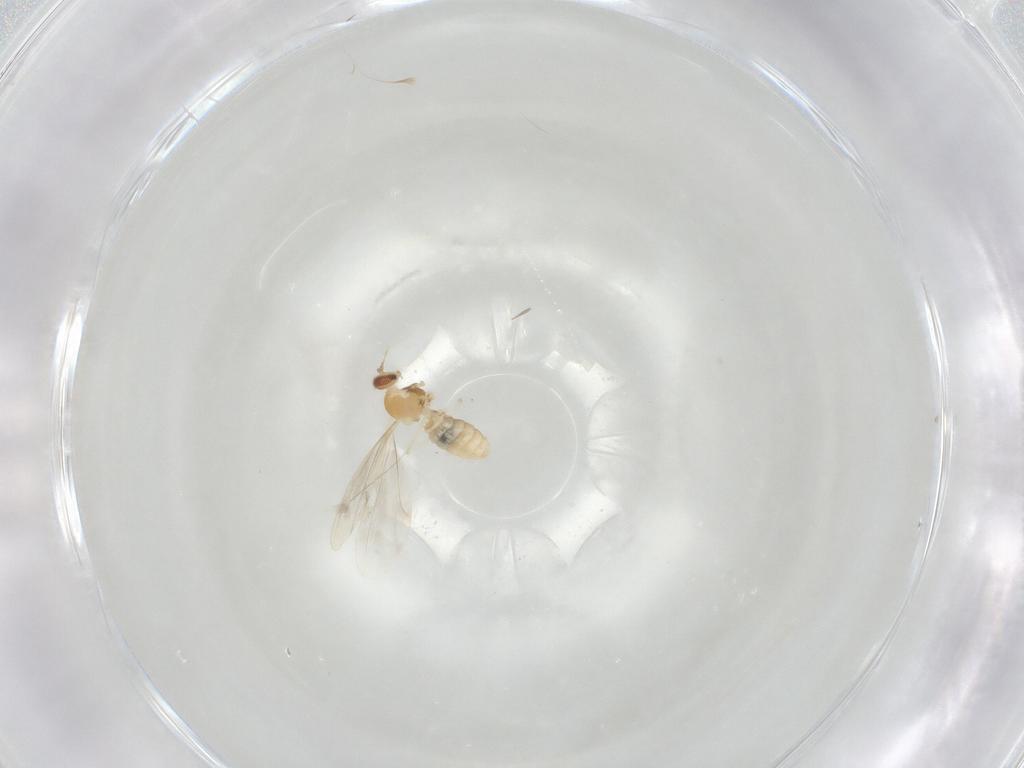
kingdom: Animalia
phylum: Arthropoda
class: Insecta
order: Diptera
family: Cecidomyiidae
